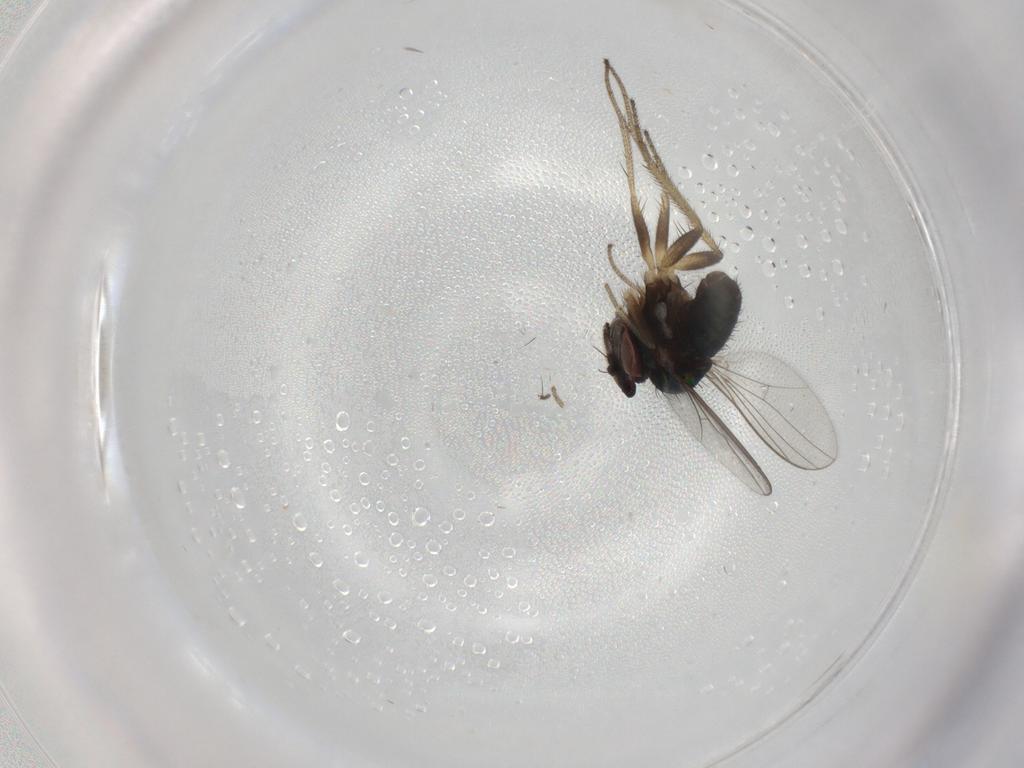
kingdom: Animalia
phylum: Arthropoda
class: Insecta
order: Diptera
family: Dolichopodidae
